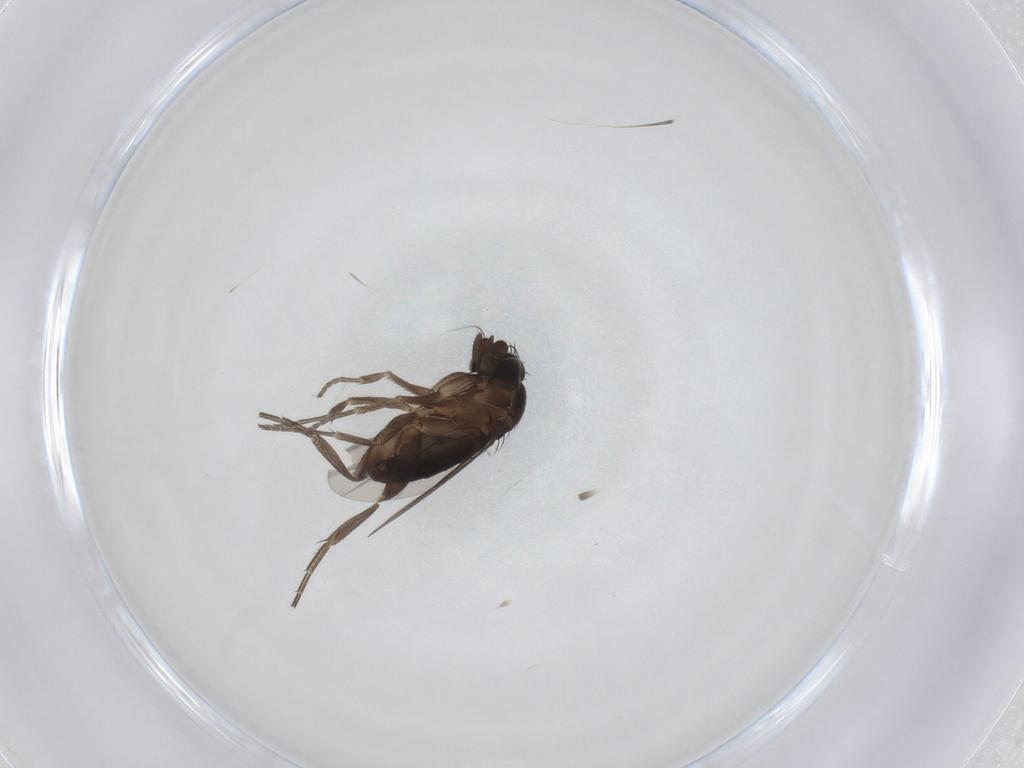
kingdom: Animalia
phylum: Arthropoda
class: Insecta
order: Diptera
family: Phoridae
